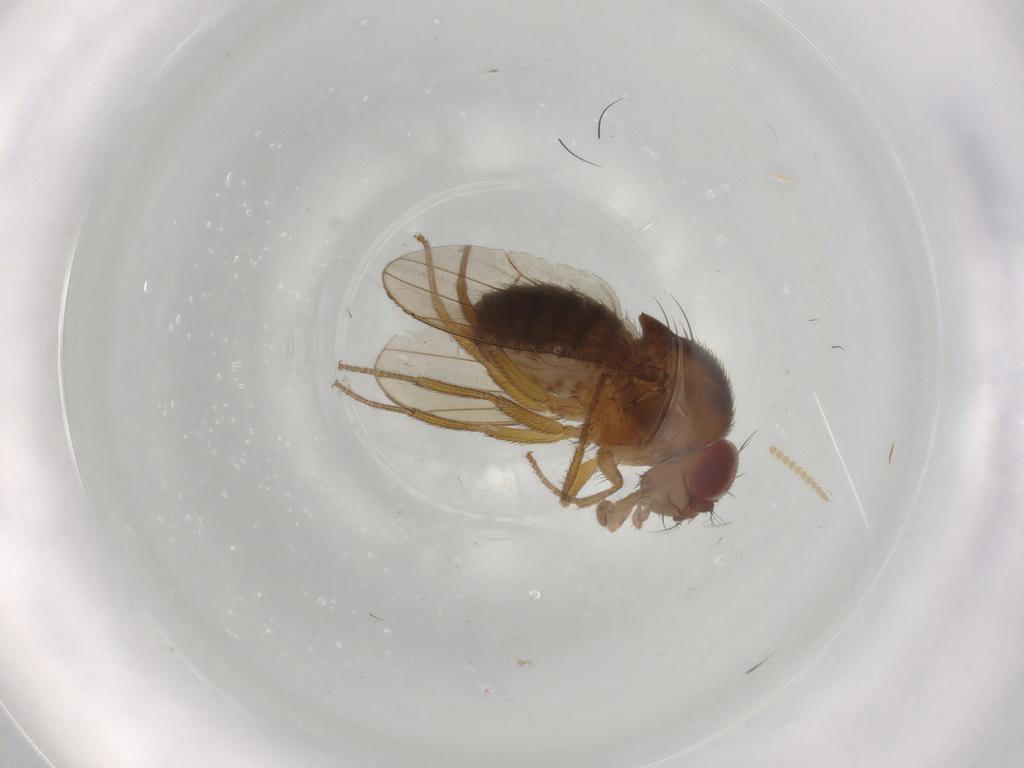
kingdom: Animalia
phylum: Arthropoda
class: Insecta
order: Diptera
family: Drosophilidae
